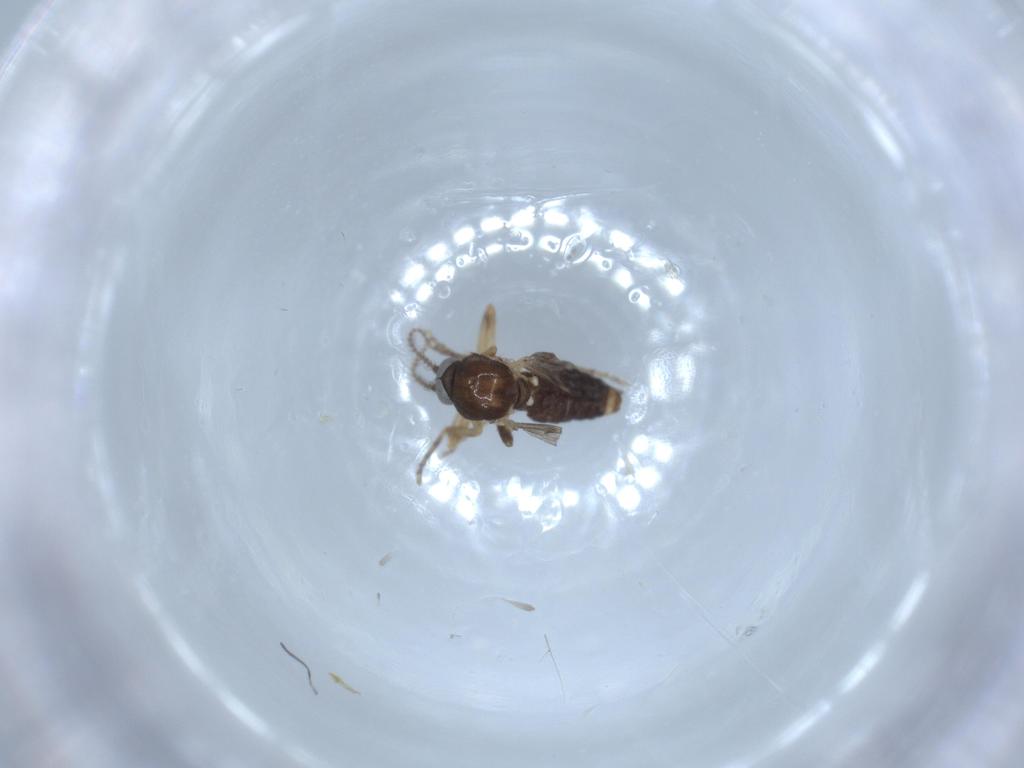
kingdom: Animalia
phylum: Arthropoda
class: Insecta
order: Diptera
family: Ceratopogonidae
